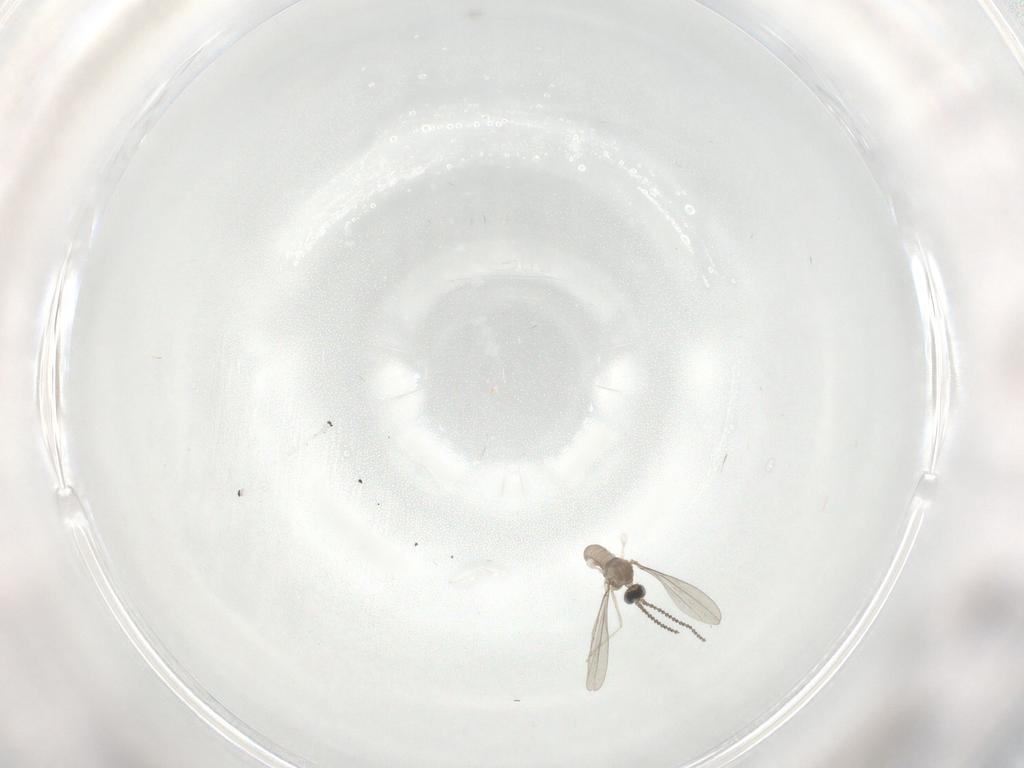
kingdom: Animalia
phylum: Arthropoda
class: Insecta
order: Diptera
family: Cecidomyiidae
